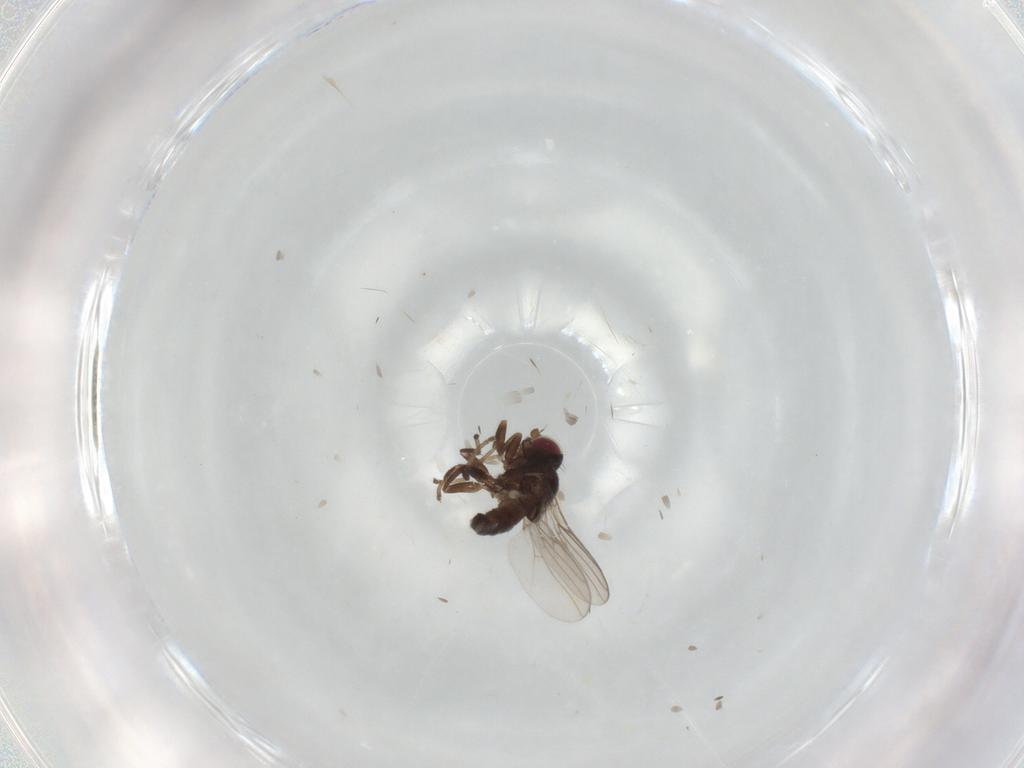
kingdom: Animalia
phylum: Arthropoda
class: Insecta
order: Diptera
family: Chloropidae
